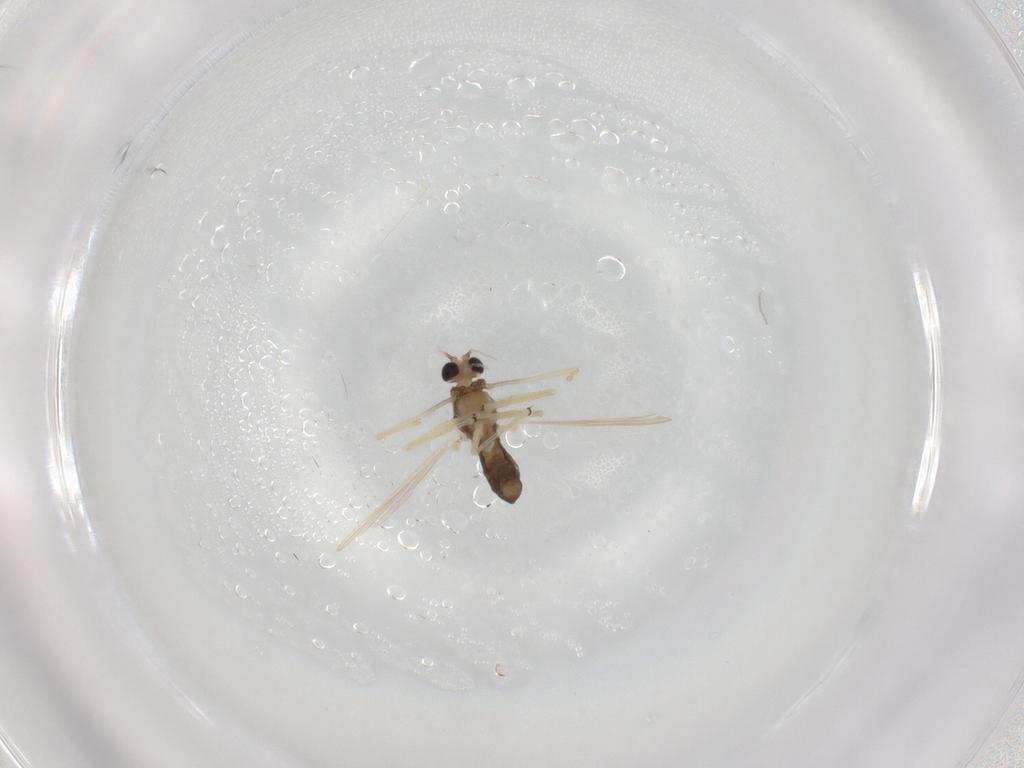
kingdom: Animalia
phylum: Arthropoda
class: Insecta
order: Diptera
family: Chironomidae
